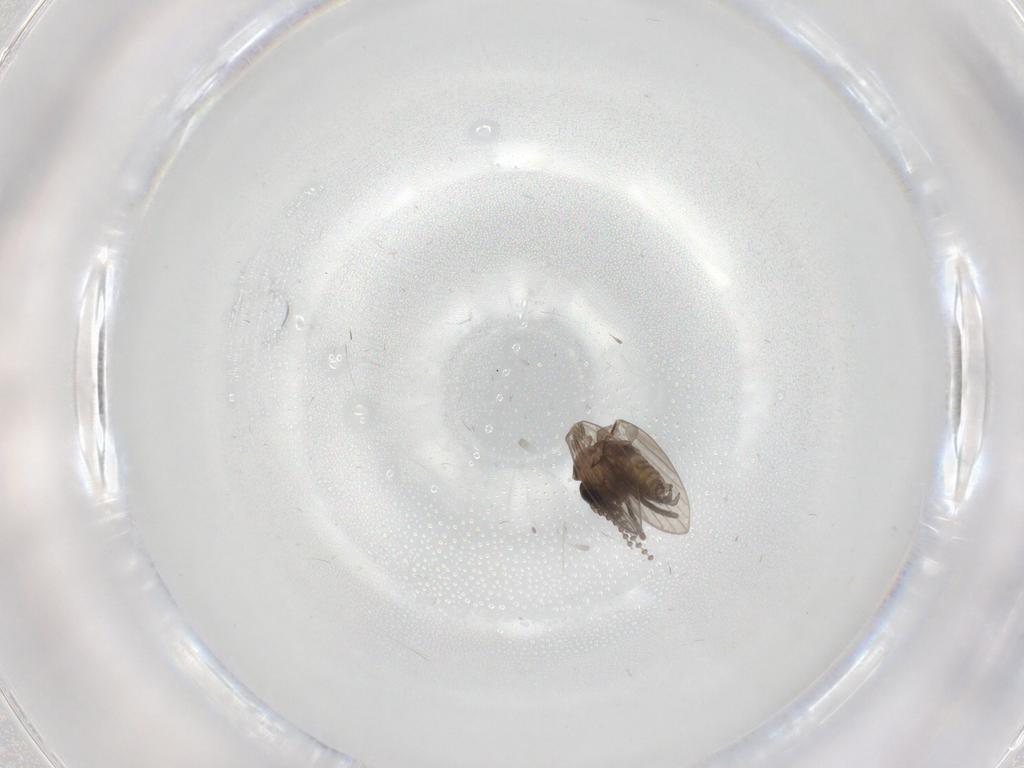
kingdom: Animalia
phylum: Arthropoda
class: Insecta
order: Diptera
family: Psychodidae
